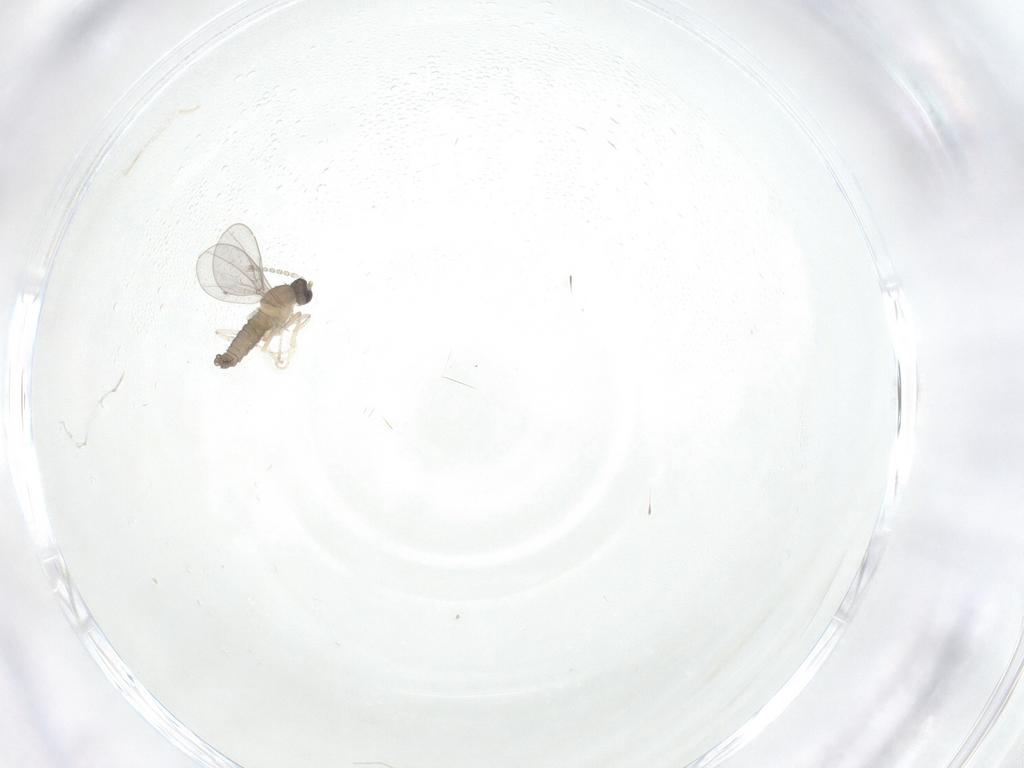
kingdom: Animalia
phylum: Arthropoda
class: Insecta
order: Diptera
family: Cecidomyiidae
